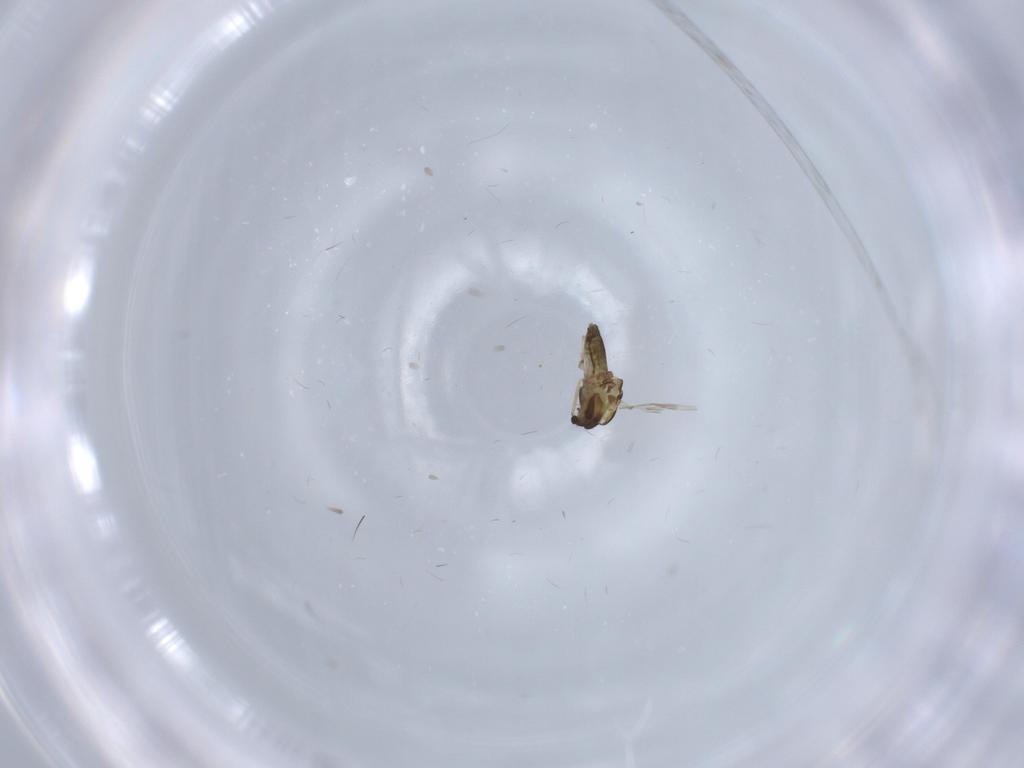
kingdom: Animalia
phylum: Arthropoda
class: Insecta
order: Diptera
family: Chironomidae
